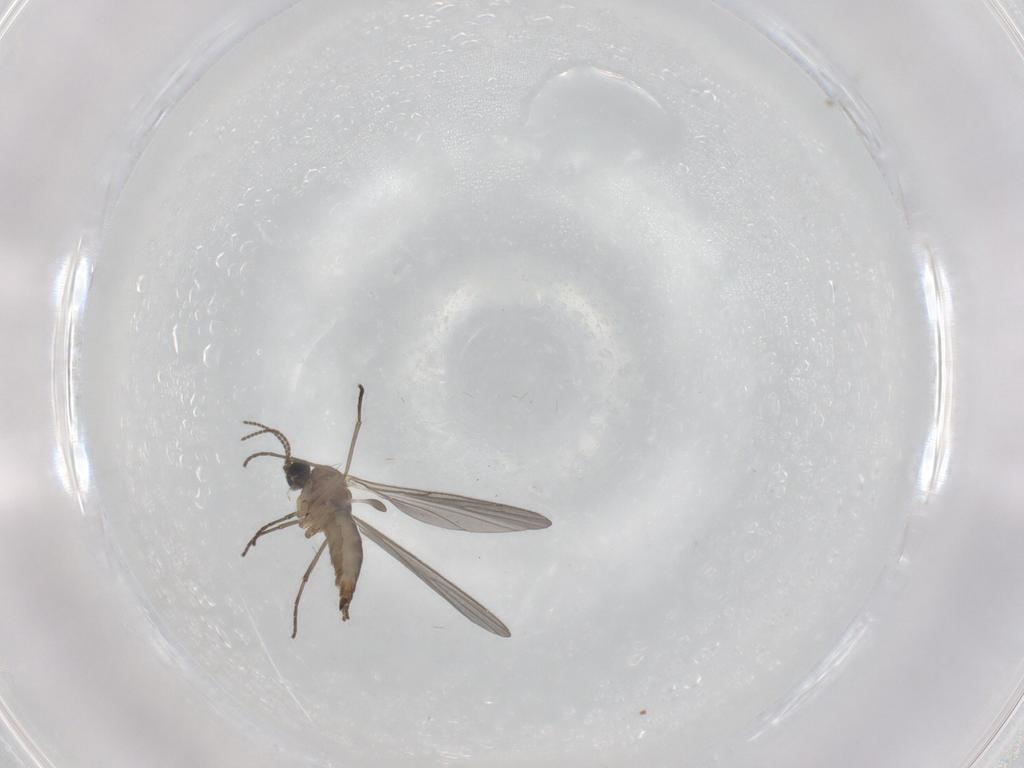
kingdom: Animalia
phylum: Arthropoda
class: Insecta
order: Diptera
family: Sciaridae
